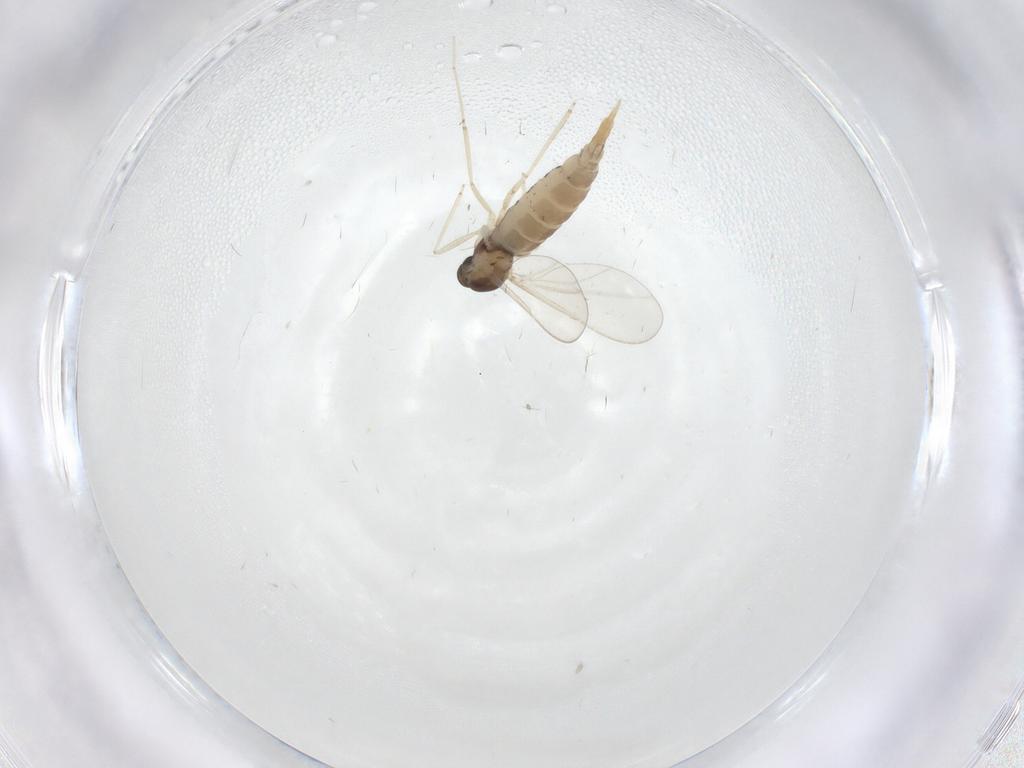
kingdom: Animalia
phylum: Arthropoda
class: Insecta
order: Diptera
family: Cecidomyiidae
